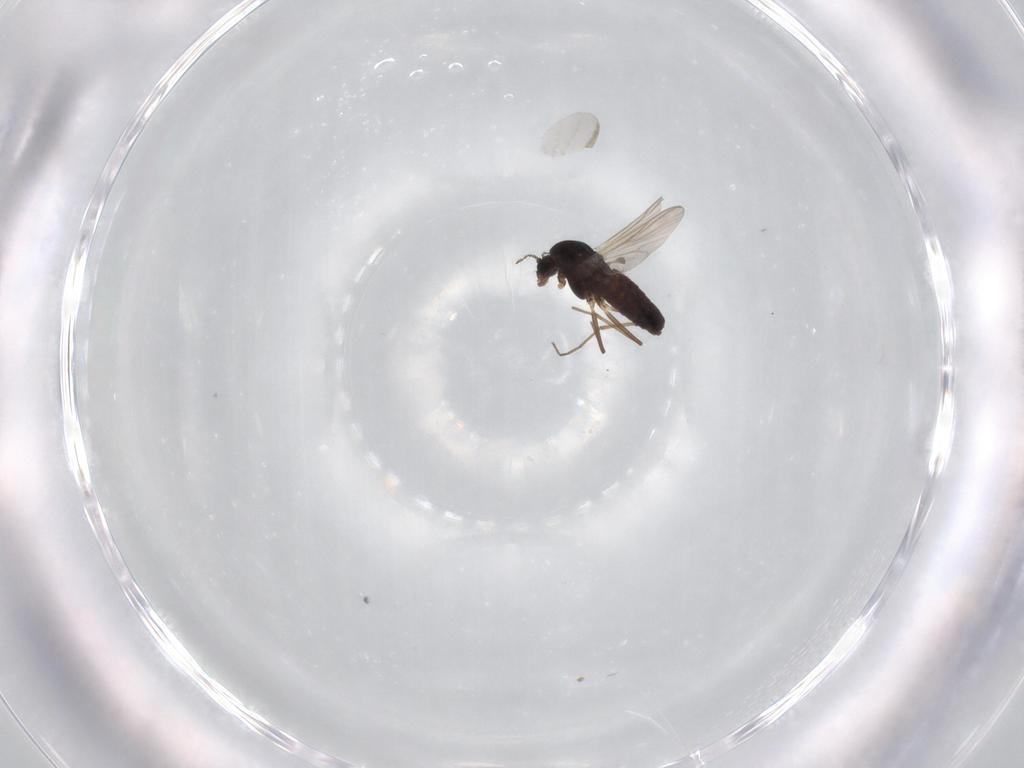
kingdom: Animalia
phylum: Arthropoda
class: Insecta
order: Diptera
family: Chironomidae
